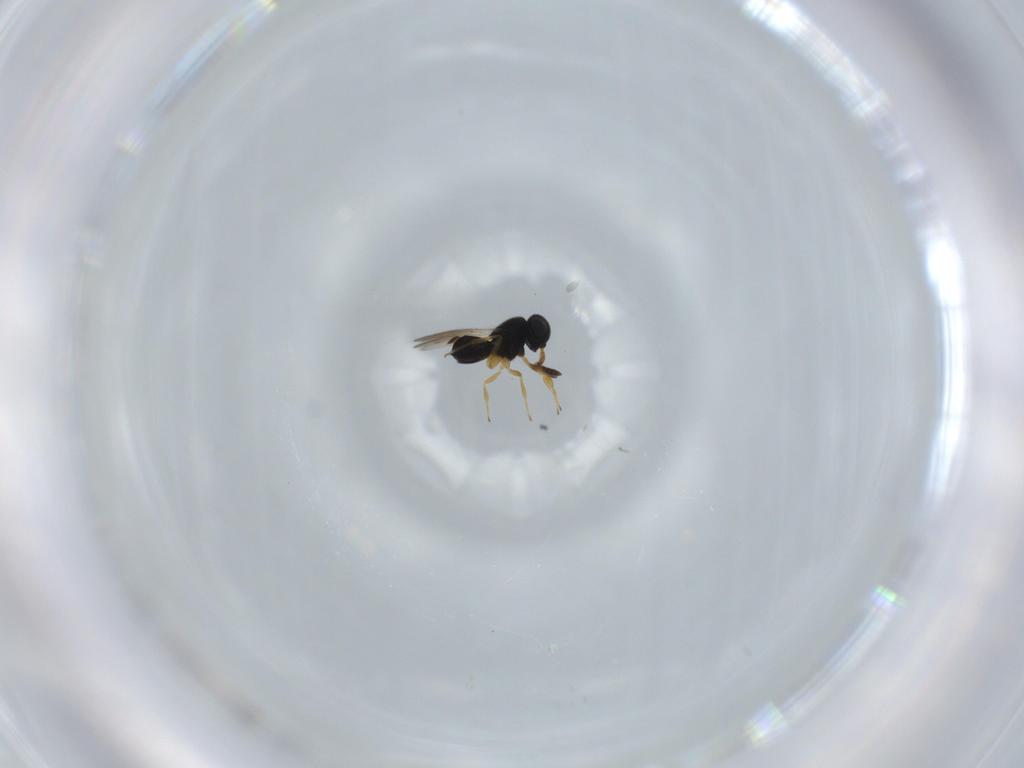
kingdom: Animalia
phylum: Arthropoda
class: Insecta
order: Hymenoptera
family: Scelionidae
